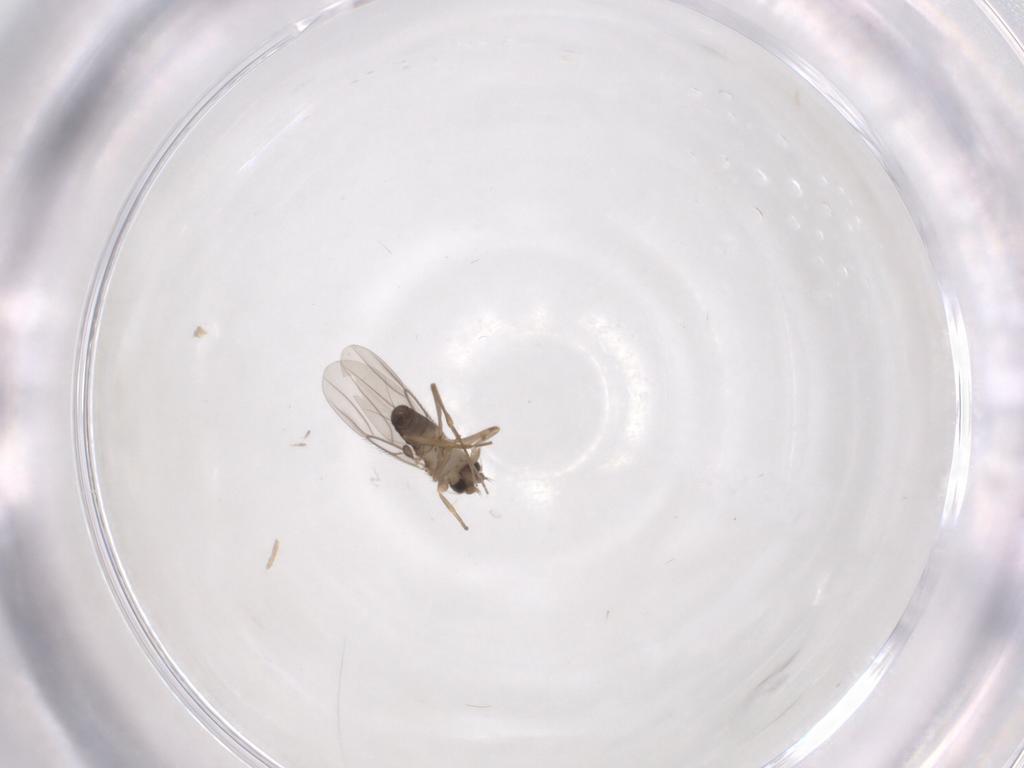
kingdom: Animalia
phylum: Arthropoda
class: Insecta
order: Diptera
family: Phoridae
